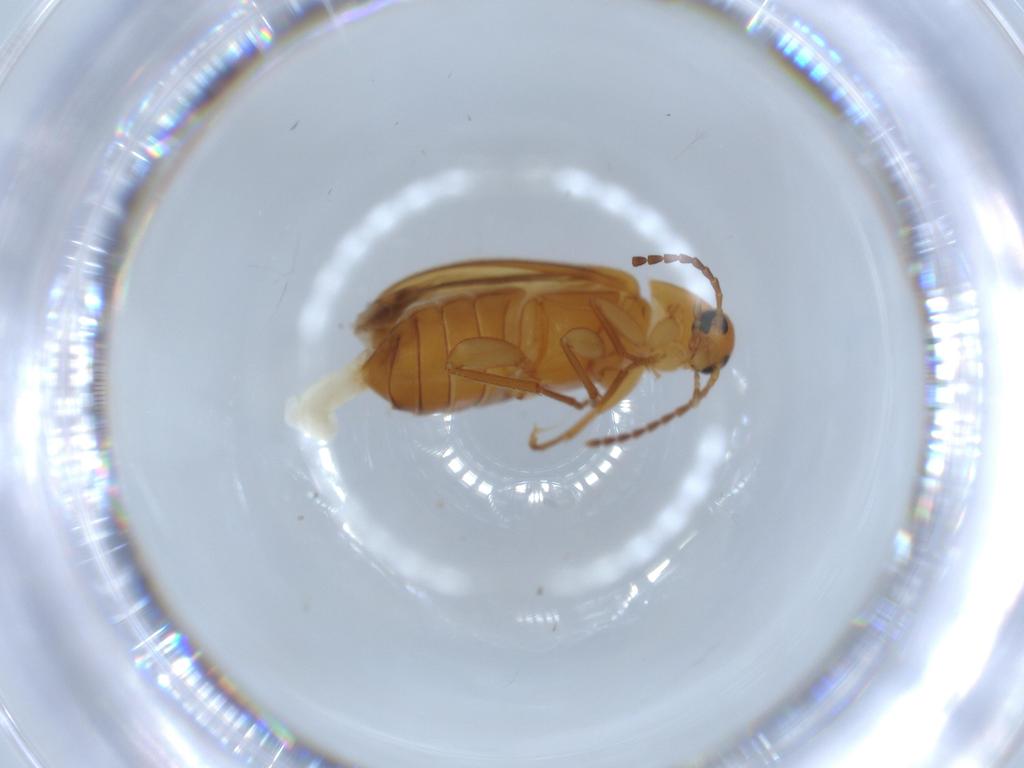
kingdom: Animalia
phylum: Arthropoda
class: Insecta
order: Coleoptera
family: Scraptiidae
